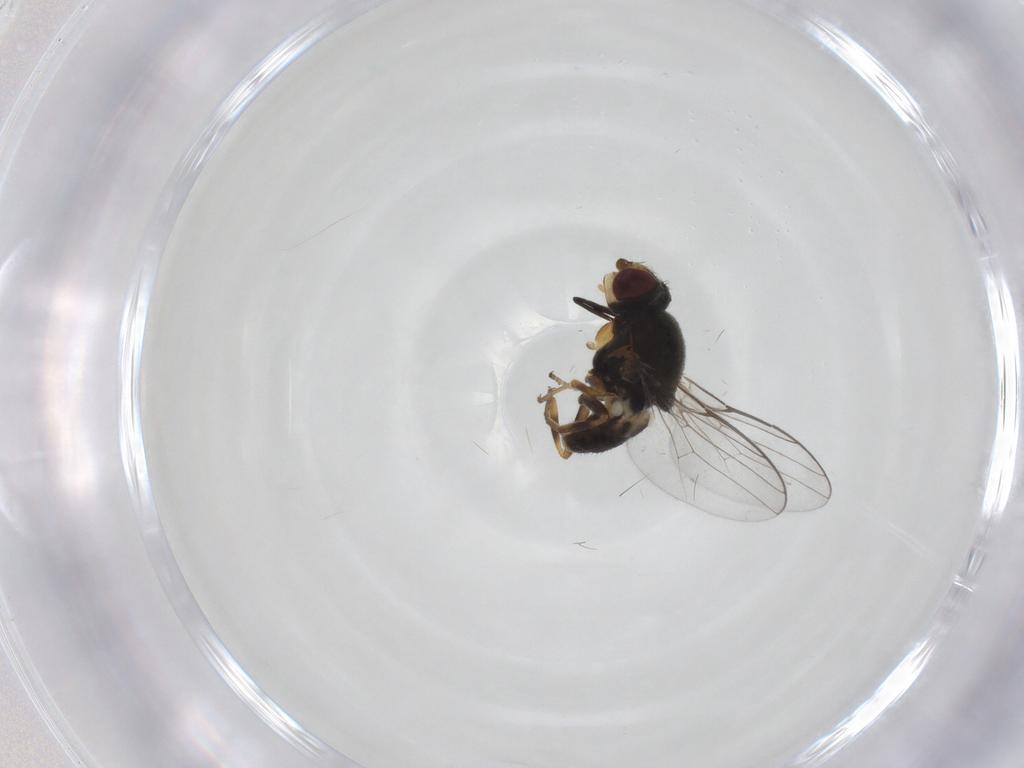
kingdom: Animalia
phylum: Arthropoda
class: Insecta
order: Diptera
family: Chloropidae
